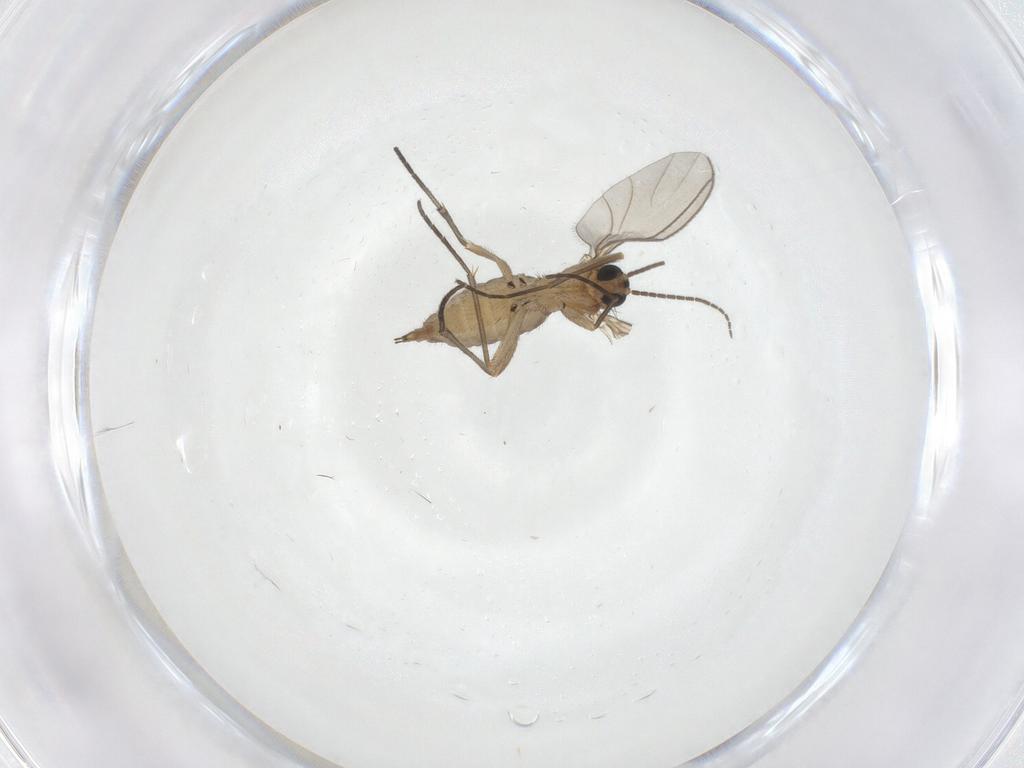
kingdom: Animalia
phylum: Arthropoda
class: Insecta
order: Diptera
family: Sciaridae
